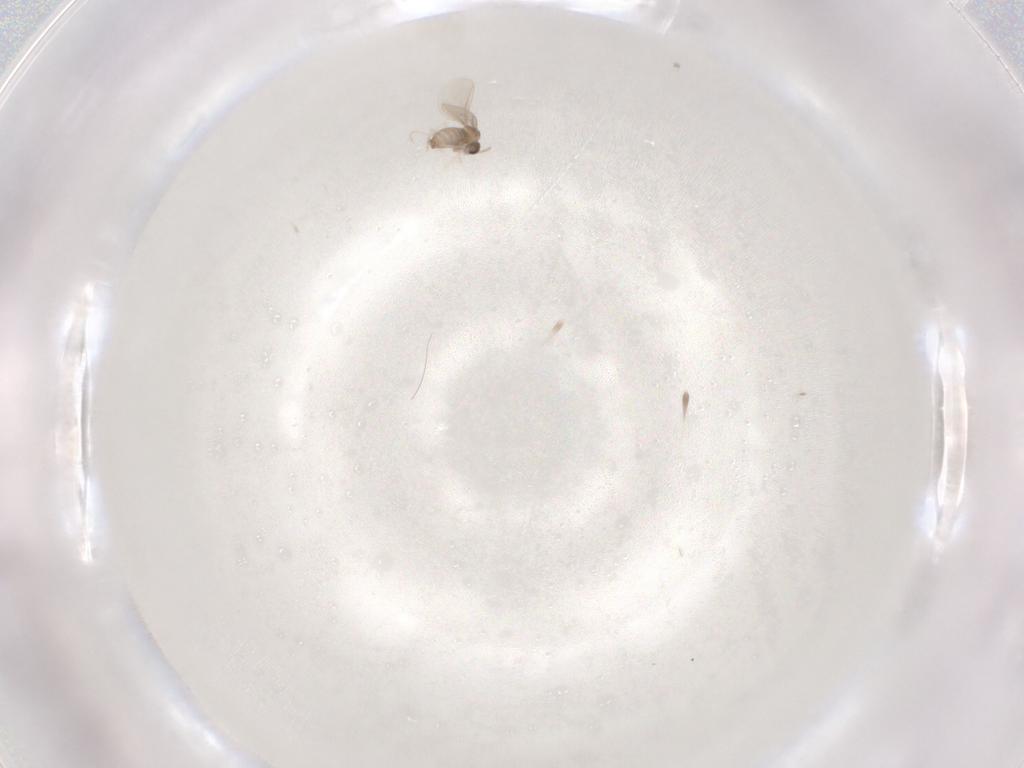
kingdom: Animalia
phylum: Arthropoda
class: Insecta
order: Diptera
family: Cecidomyiidae
